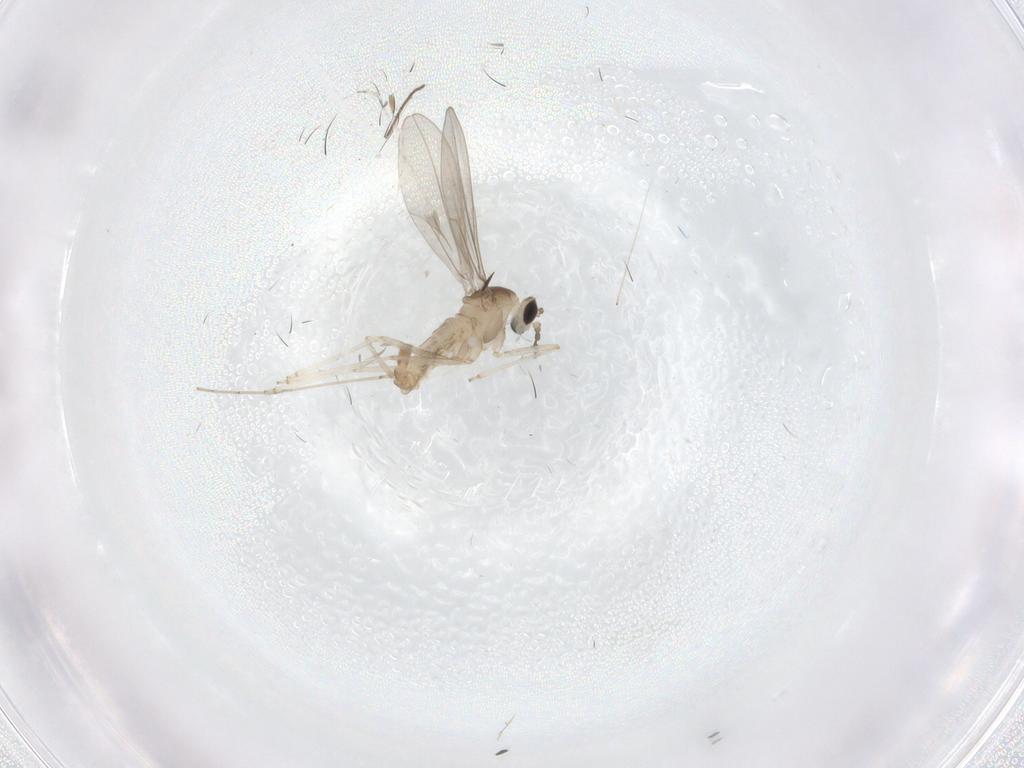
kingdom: Animalia
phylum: Arthropoda
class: Insecta
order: Diptera
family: Cecidomyiidae
